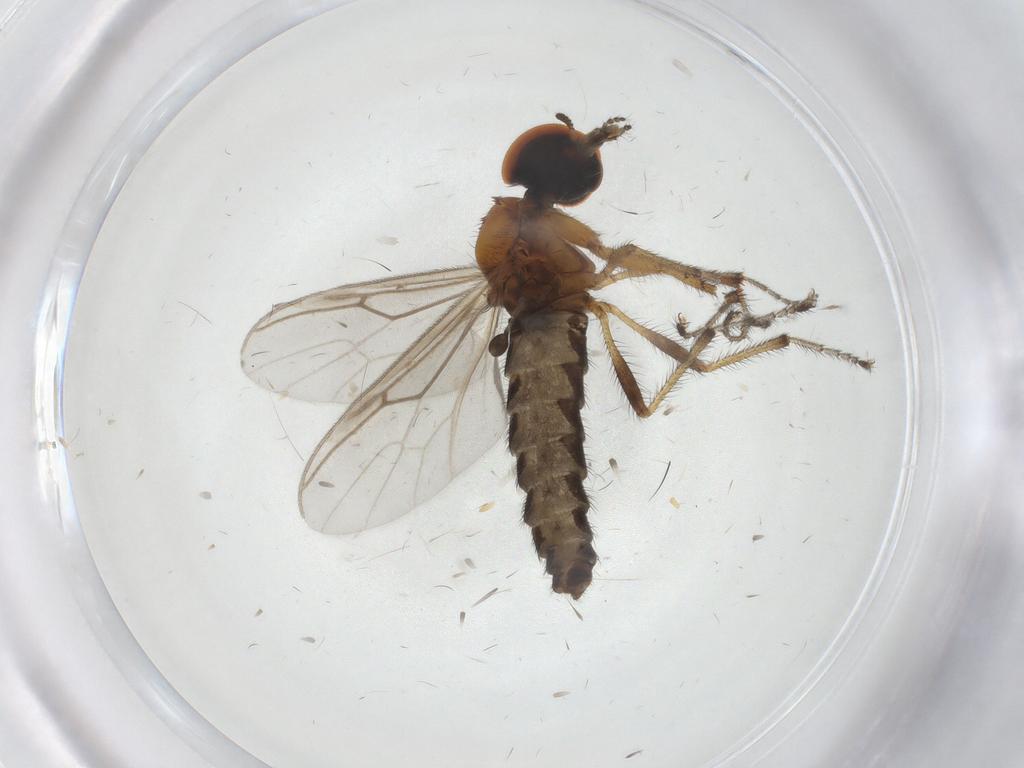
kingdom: Animalia
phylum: Arthropoda
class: Insecta
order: Diptera
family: Bibionidae
